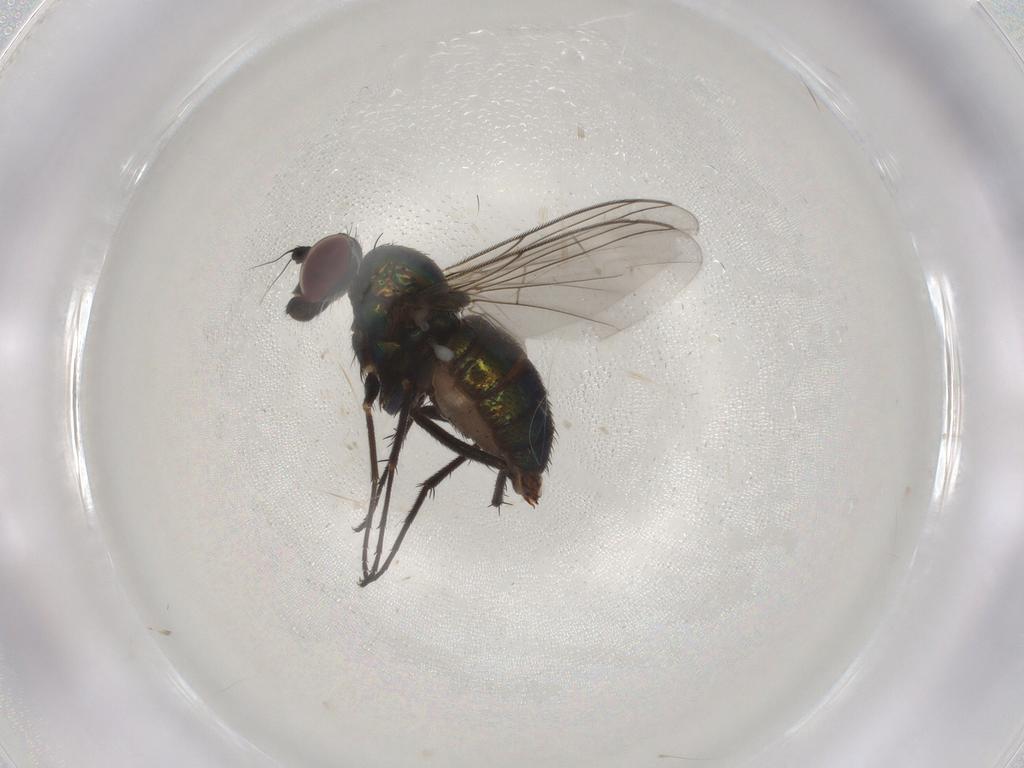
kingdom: Animalia
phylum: Arthropoda
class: Insecta
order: Diptera
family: Dolichopodidae
